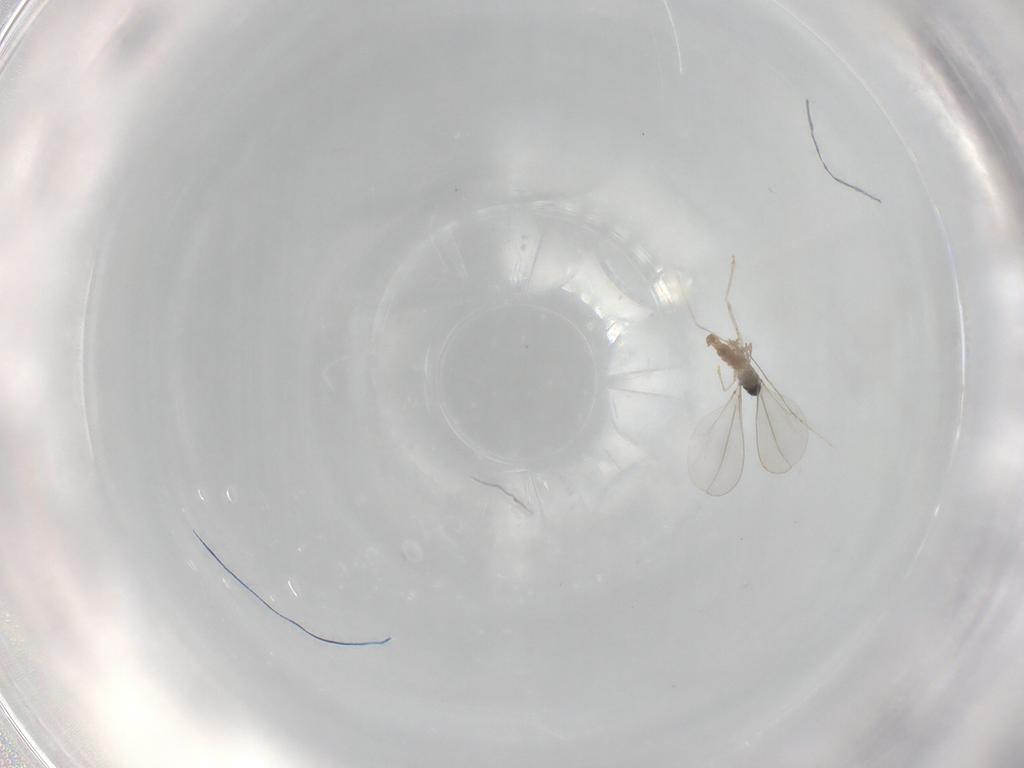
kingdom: Animalia
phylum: Arthropoda
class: Insecta
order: Diptera
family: Cecidomyiidae
